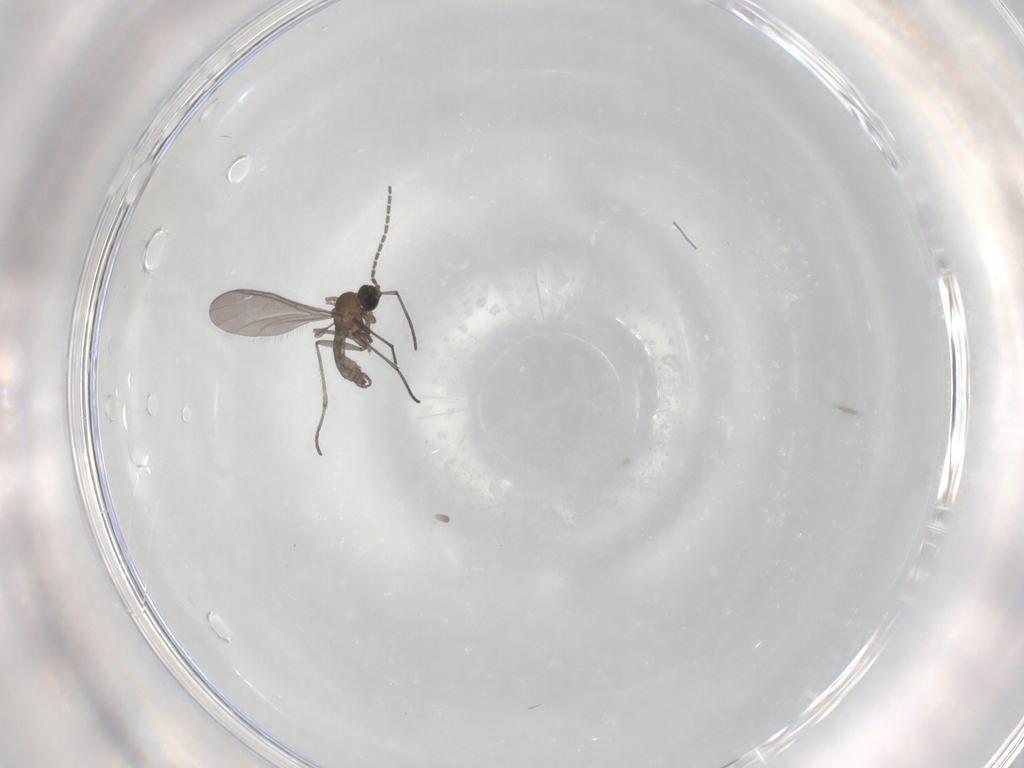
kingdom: Animalia
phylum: Arthropoda
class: Insecta
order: Diptera
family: Sciaridae
